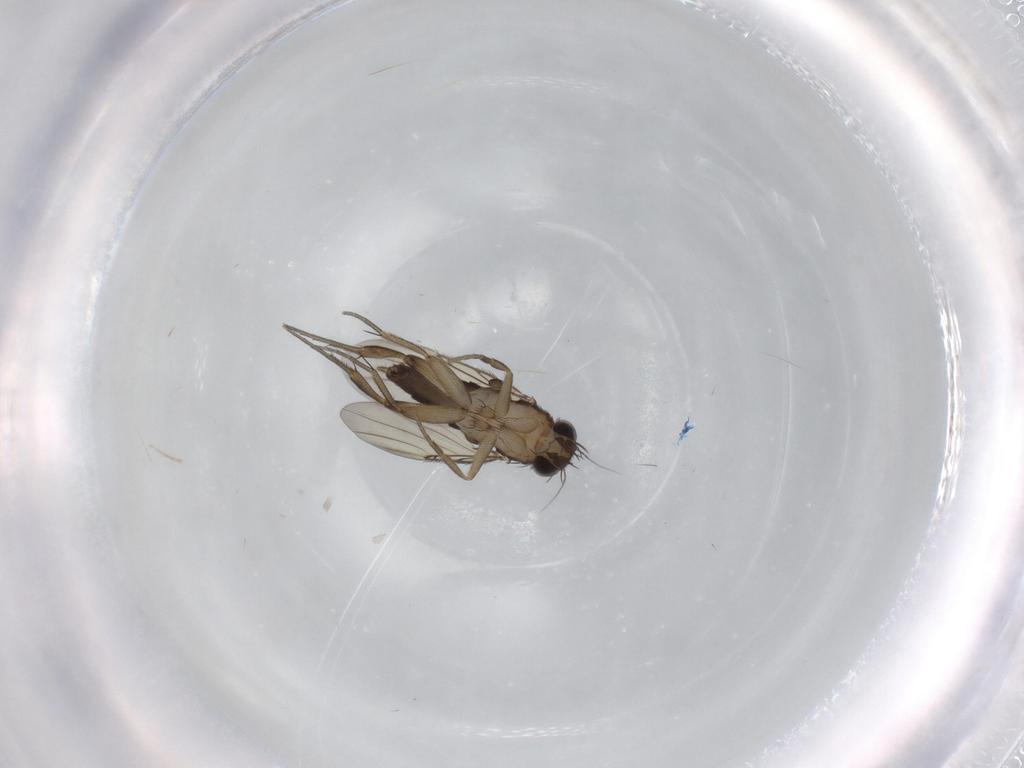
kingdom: Animalia
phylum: Arthropoda
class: Insecta
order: Diptera
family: Phoridae
